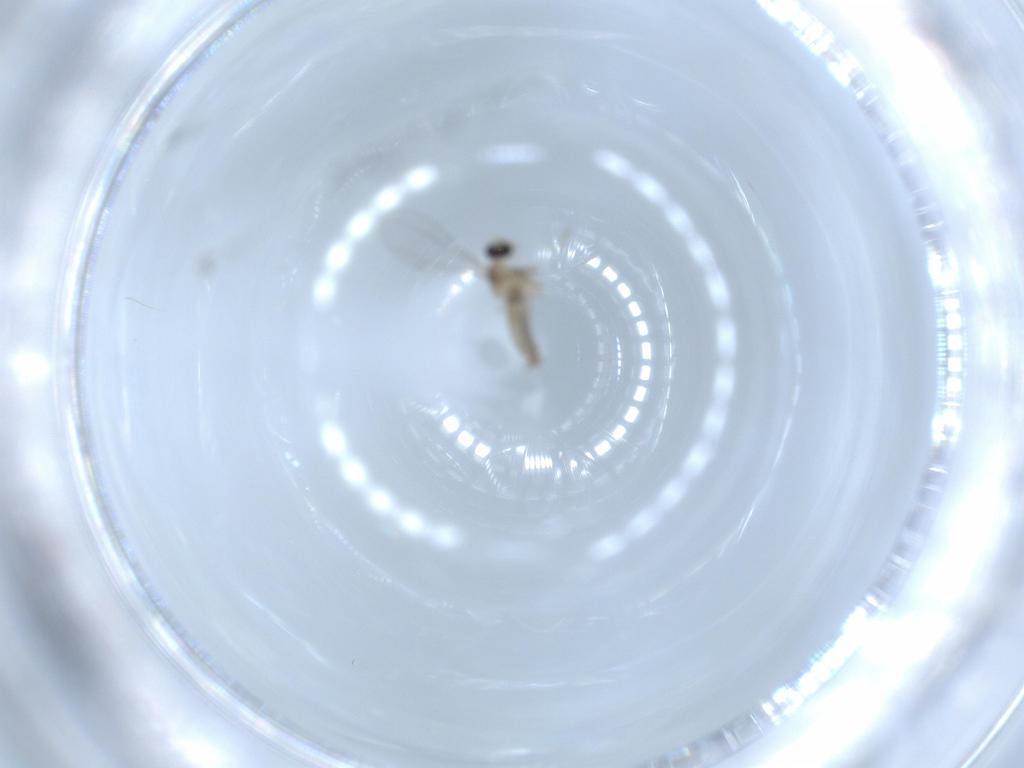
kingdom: Animalia
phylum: Arthropoda
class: Insecta
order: Diptera
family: Cecidomyiidae
